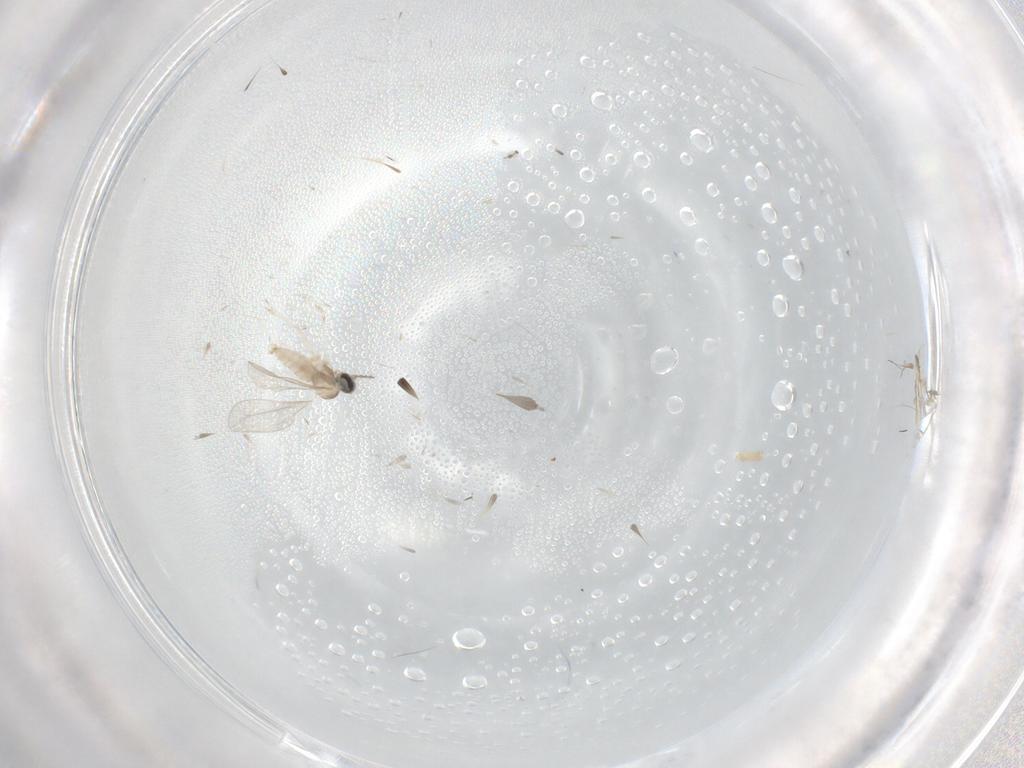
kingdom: Animalia
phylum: Arthropoda
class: Insecta
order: Diptera
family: Cecidomyiidae
